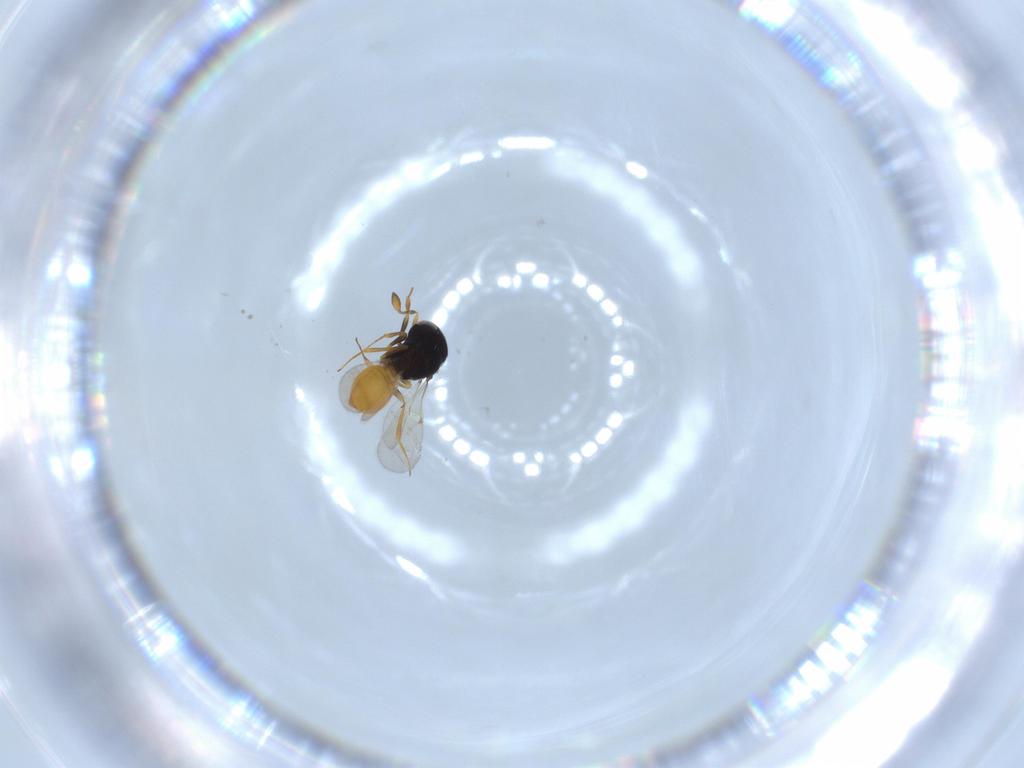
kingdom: Animalia
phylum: Arthropoda
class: Insecta
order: Hymenoptera
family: Scelionidae
